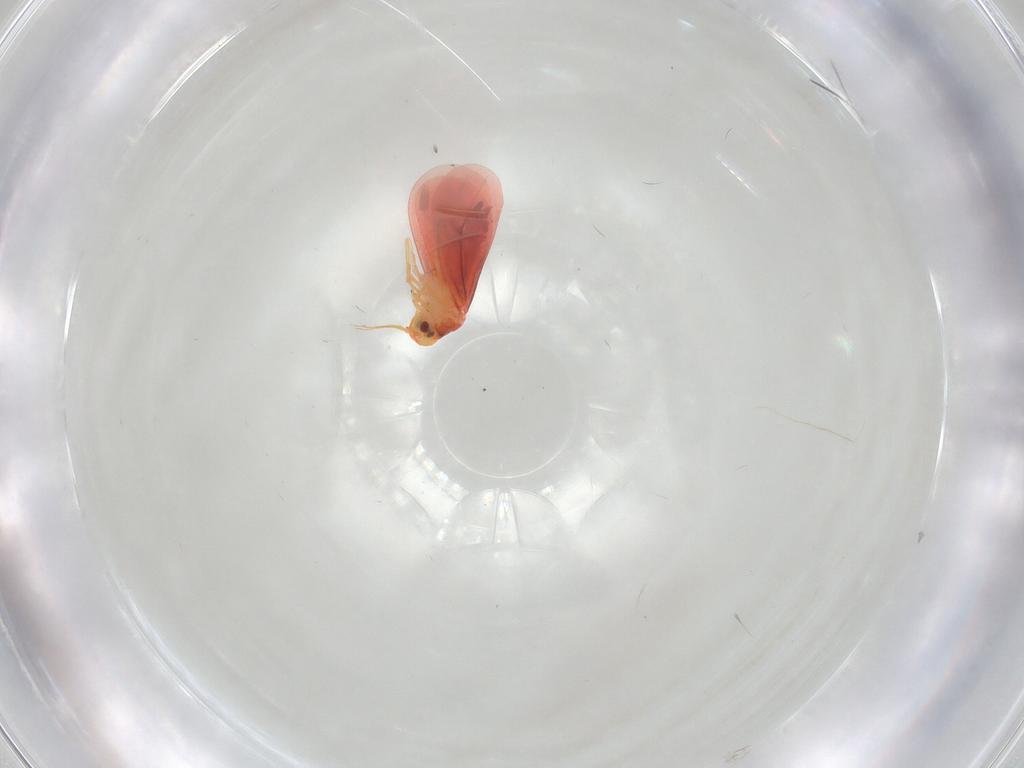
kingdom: Animalia
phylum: Arthropoda
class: Insecta
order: Hemiptera
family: Aleyrodidae
